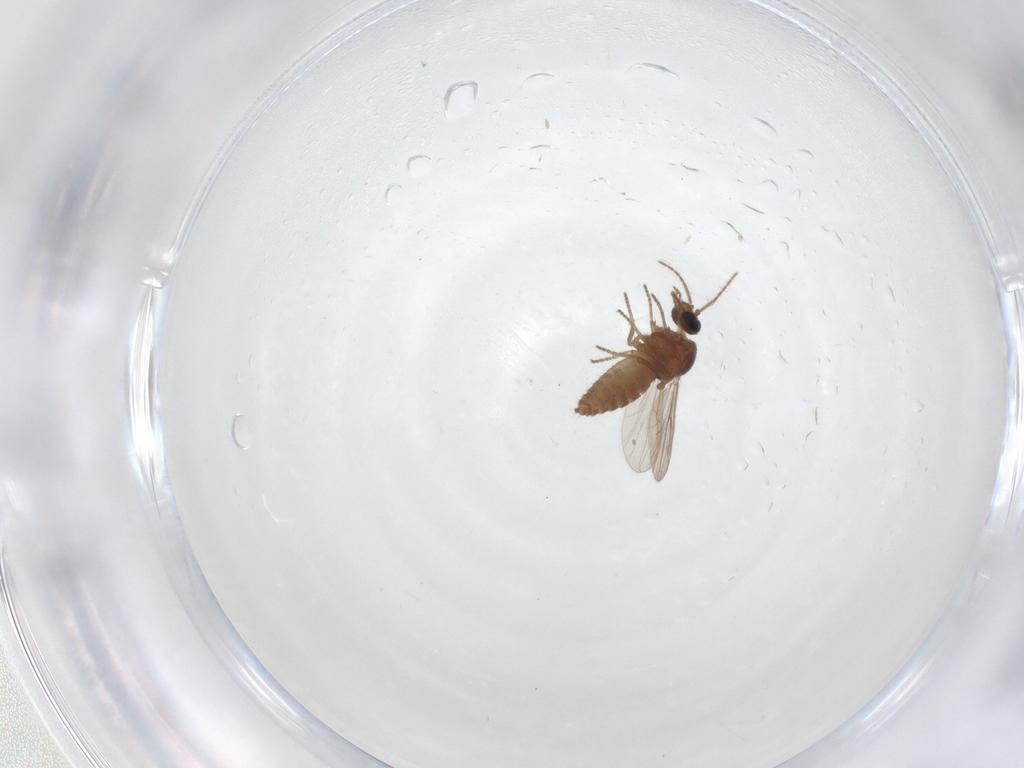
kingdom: Animalia
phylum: Arthropoda
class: Insecta
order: Diptera
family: Ceratopogonidae
